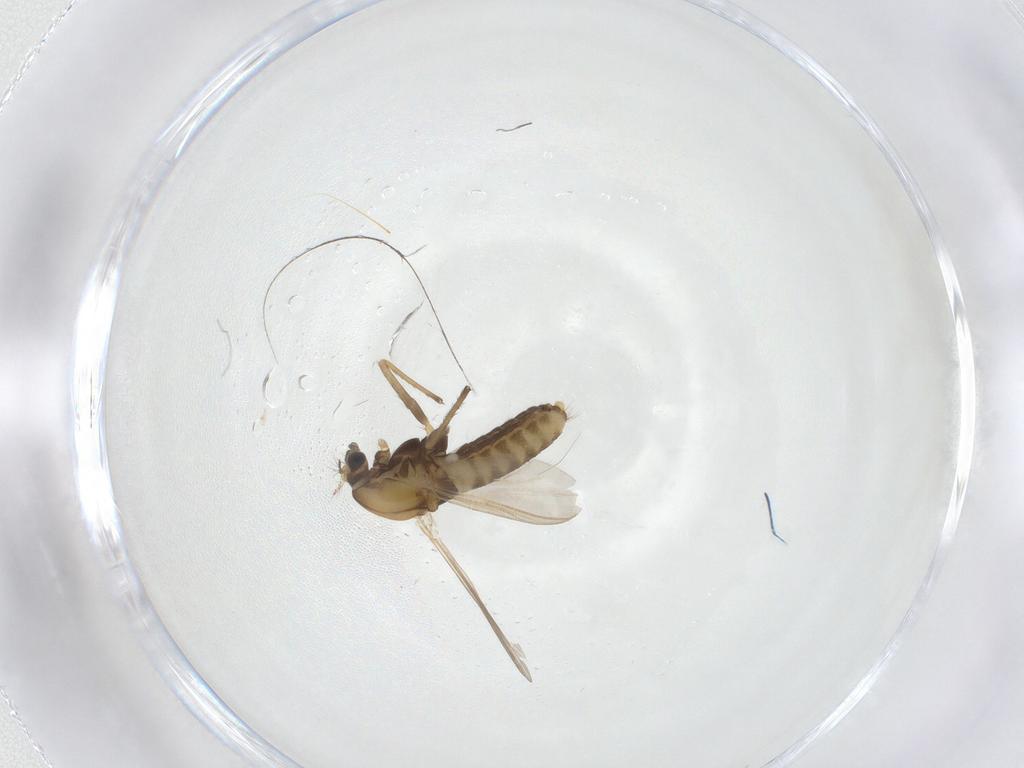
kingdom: Animalia
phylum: Arthropoda
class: Insecta
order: Diptera
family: Chironomidae
